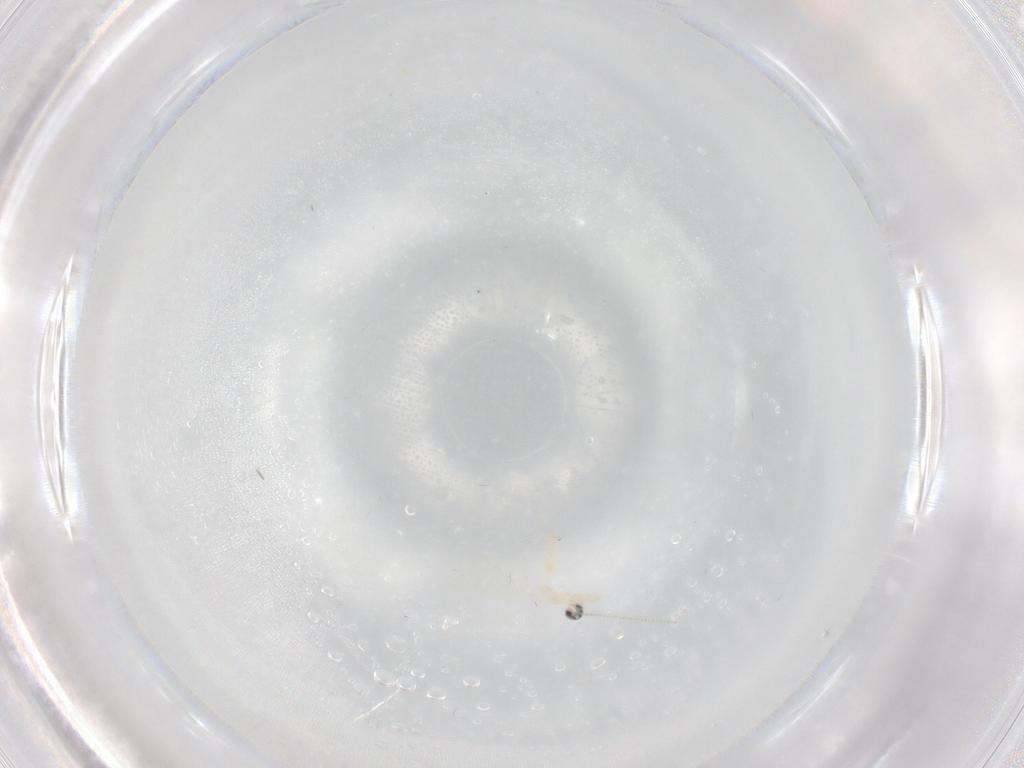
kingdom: Animalia
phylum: Arthropoda
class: Insecta
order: Diptera
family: Cecidomyiidae
